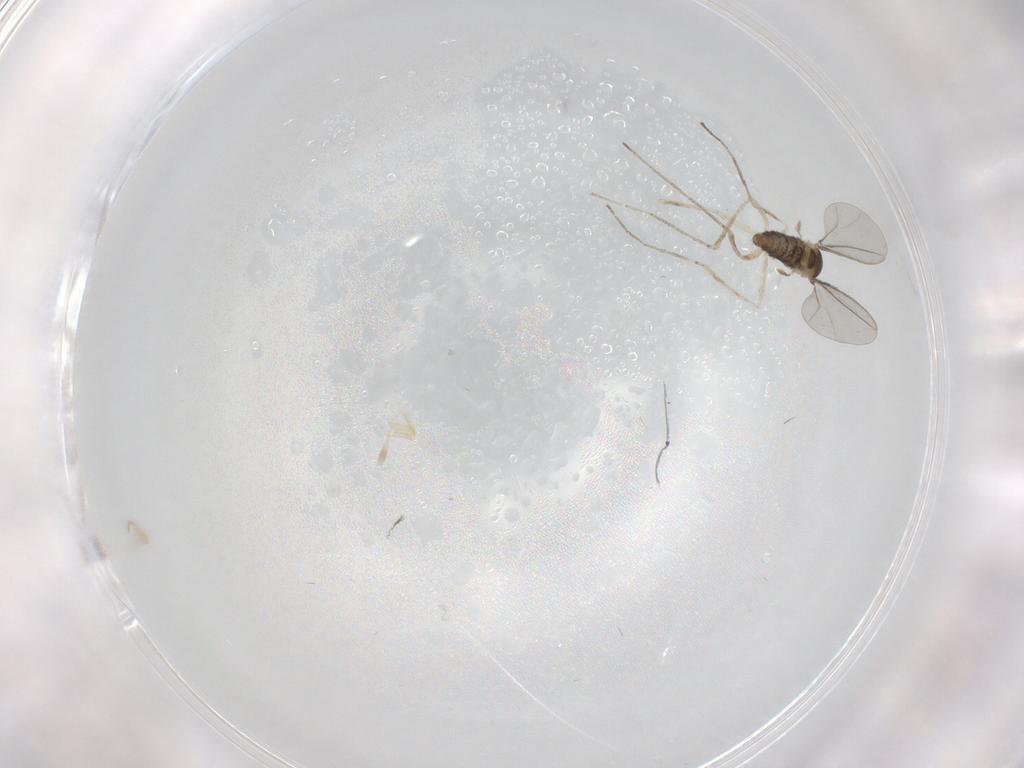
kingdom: Animalia
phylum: Arthropoda
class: Insecta
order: Diptera
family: Cecidomyiidae
